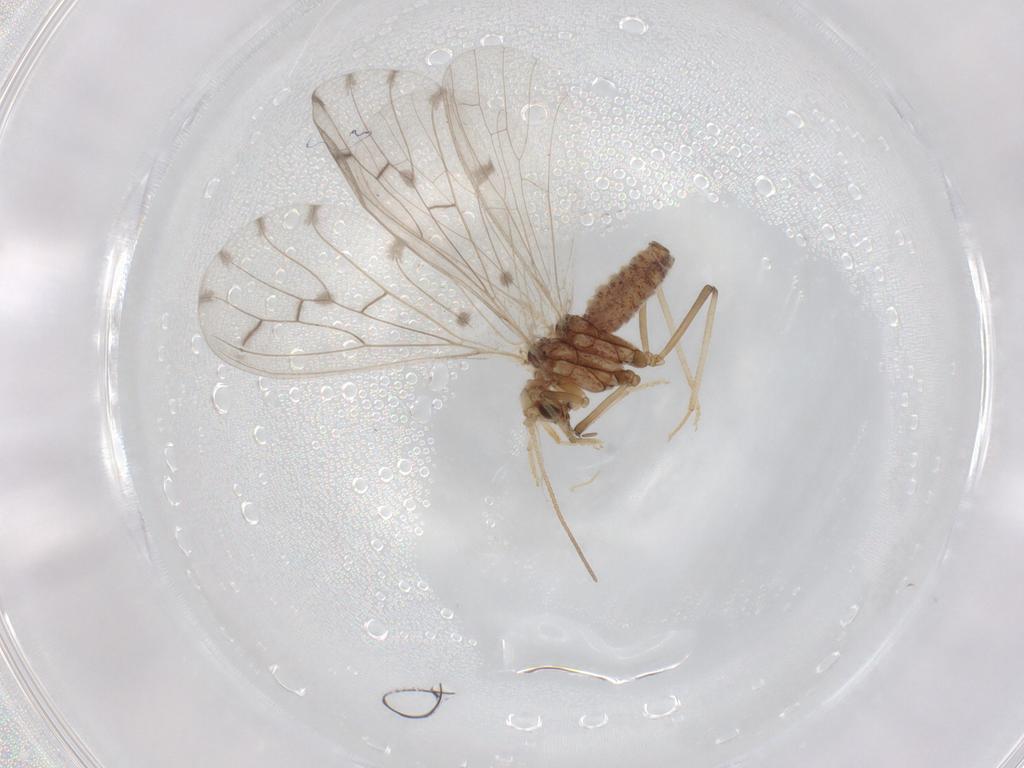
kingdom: Animalia
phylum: Arthropoda
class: Insecta
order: Neuroptera
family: Coniopterygidae
